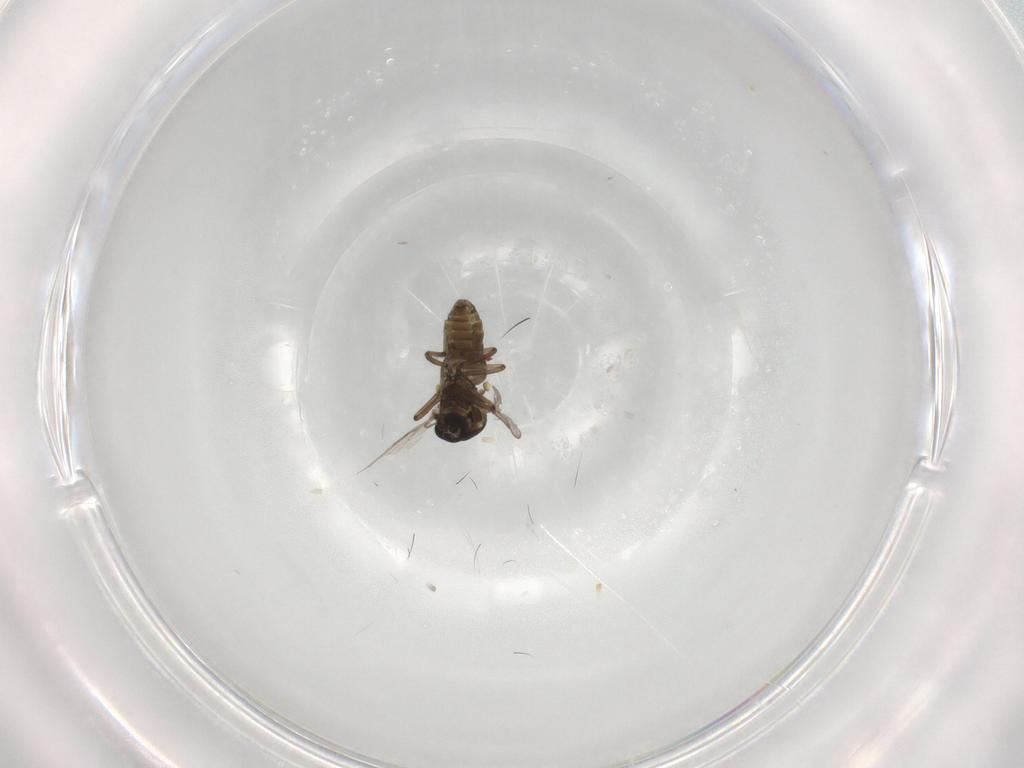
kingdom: Animalia
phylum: Arthropoda
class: Insecta
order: Diptera
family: Ceratopogonidae
